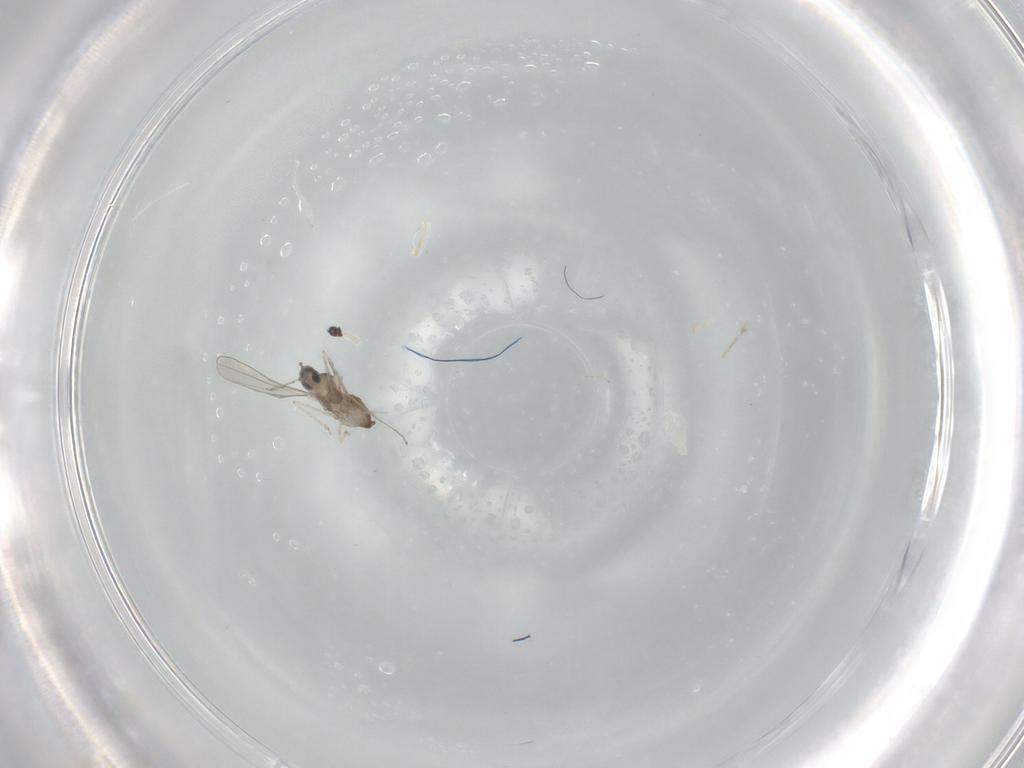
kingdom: Animalia
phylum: Arthropoda
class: Insecta
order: Diptera
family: Cecidomyiidae
